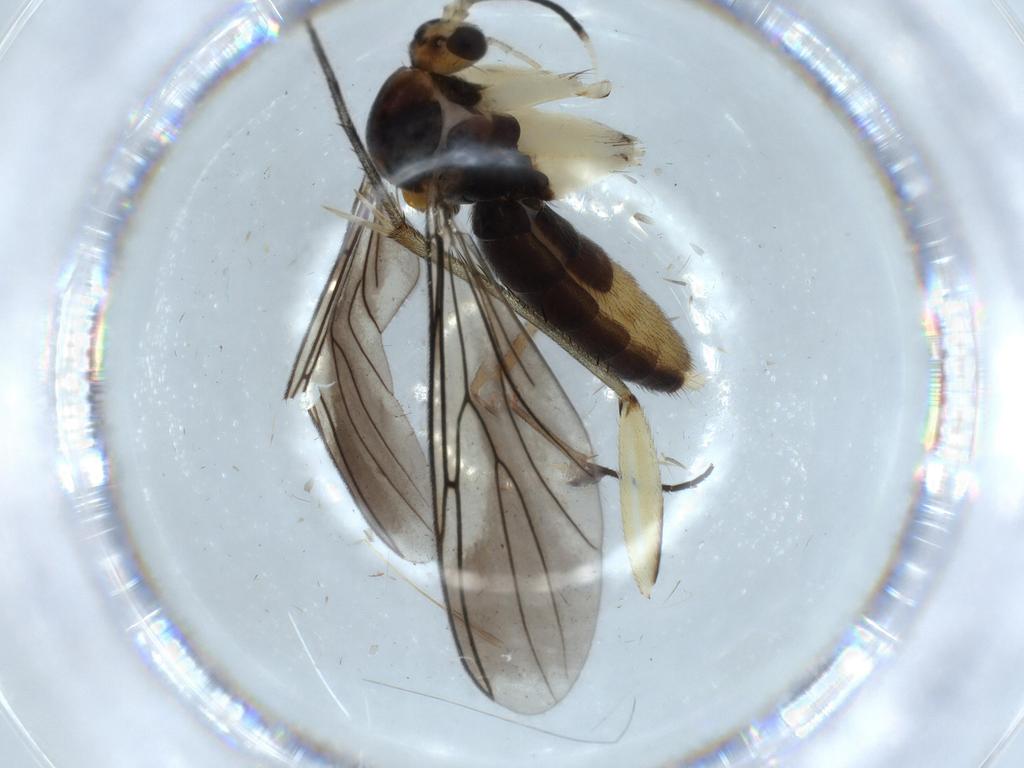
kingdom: Animalia
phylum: Arthropoda
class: Insecta
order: Diptera
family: Mycetophilidae
